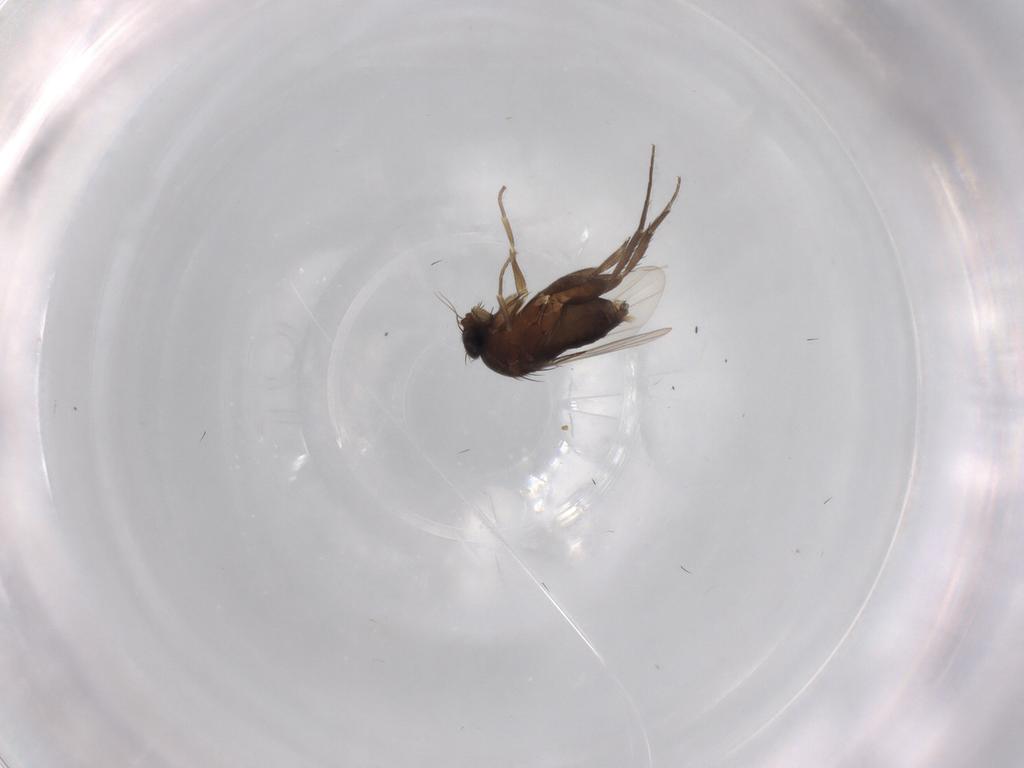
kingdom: Animalia
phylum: Arthropoda
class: Insecta
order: Diptera
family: Phoridae
